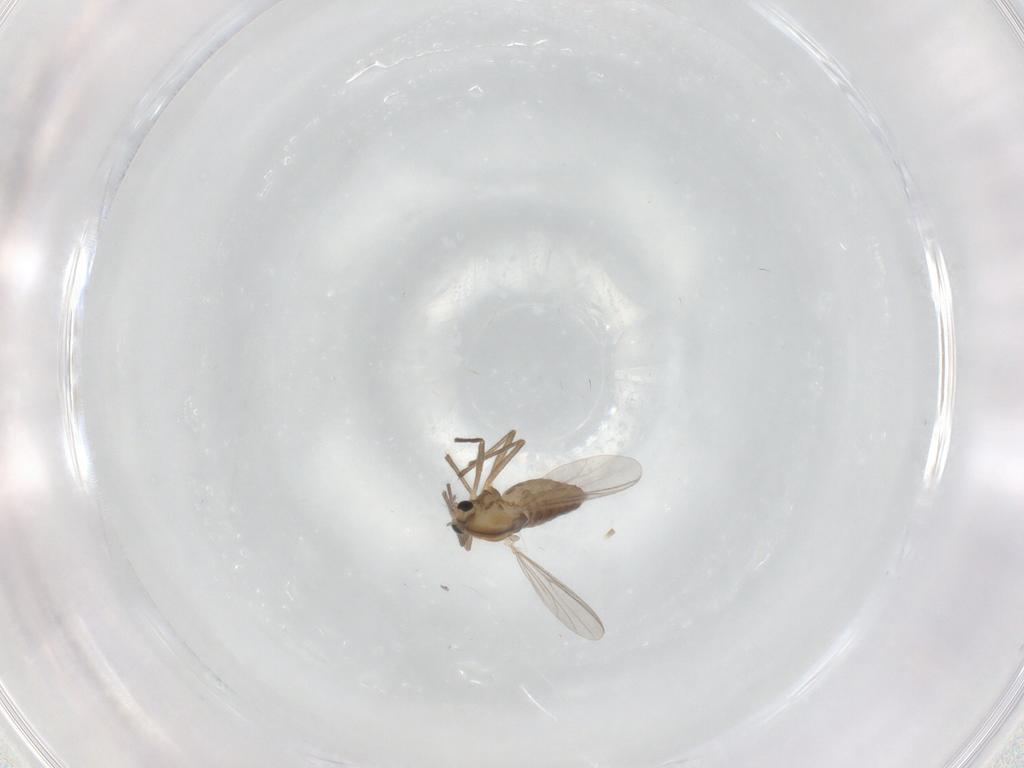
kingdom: Animalia
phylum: Arthropoda
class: Insecta
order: Diptera
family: Chironomidae
